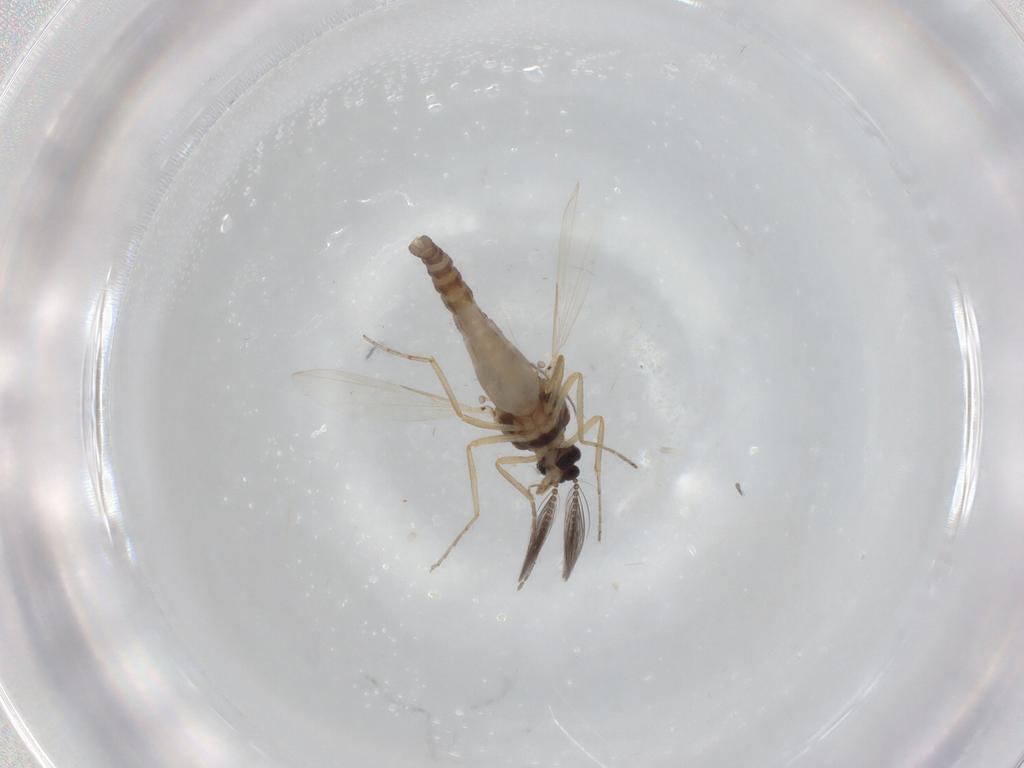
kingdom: Animalia
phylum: Arthropoda
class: Insecta
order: Diptera
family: Ceratopogonidae
